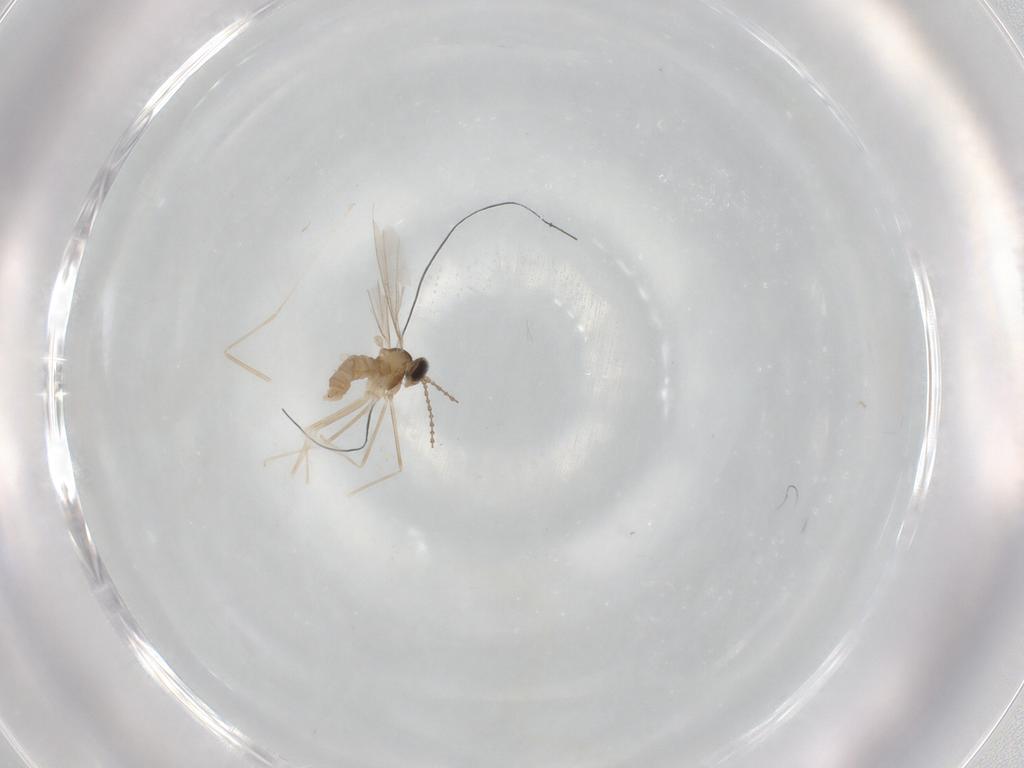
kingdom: Animalia
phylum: Arthropoda
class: Insecta
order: Diptera
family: Cecidomyiidae
